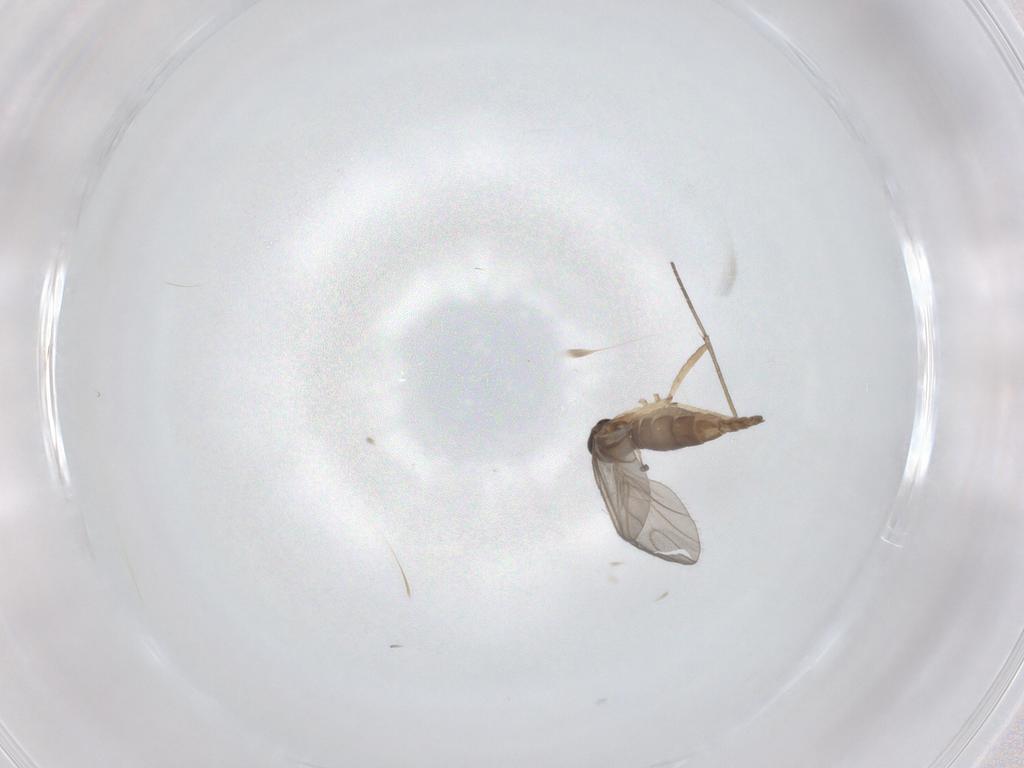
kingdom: Animalia
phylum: Arthropoda
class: Insecta
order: Diptera
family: Sciaridae
